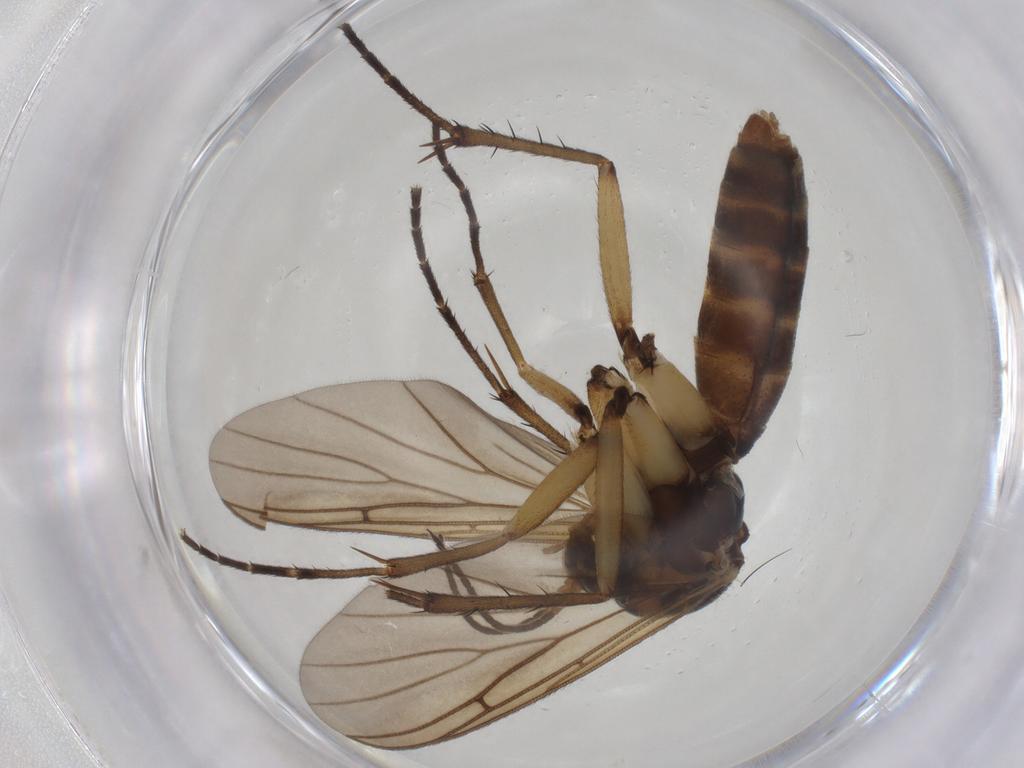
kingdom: Animalia
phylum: Arthropoda
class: Insecta
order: Diptera
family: Mycetophilidae
